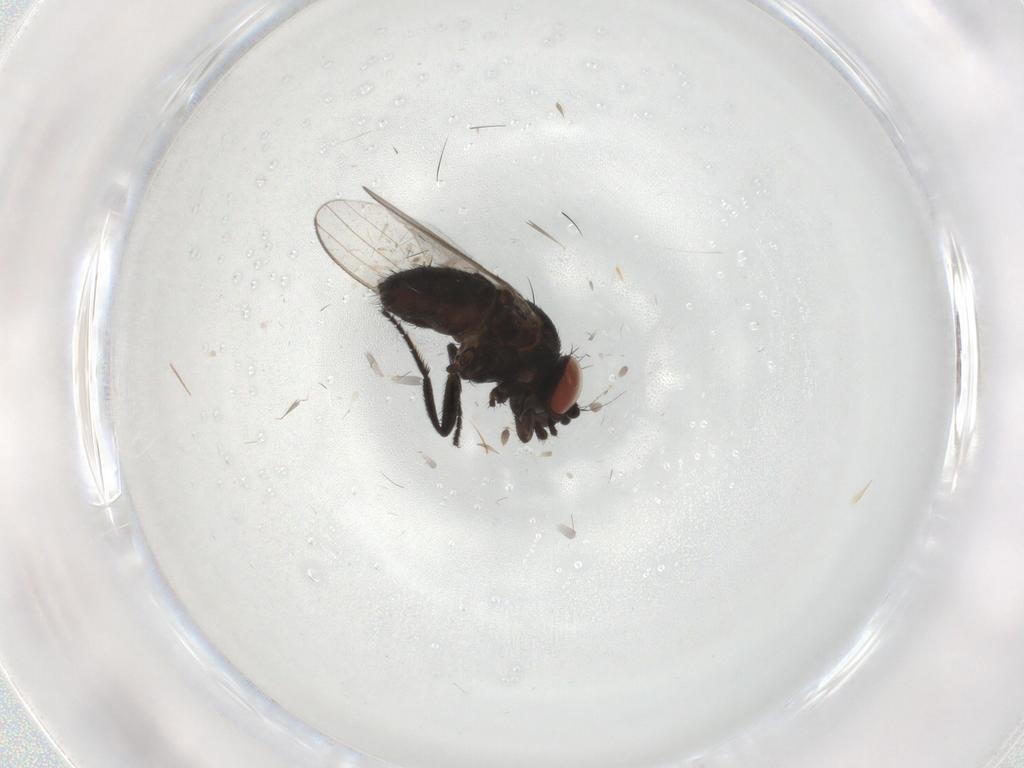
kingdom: Animalia
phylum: Arthropoda
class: Insecta
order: Diptera
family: Milichiidae
